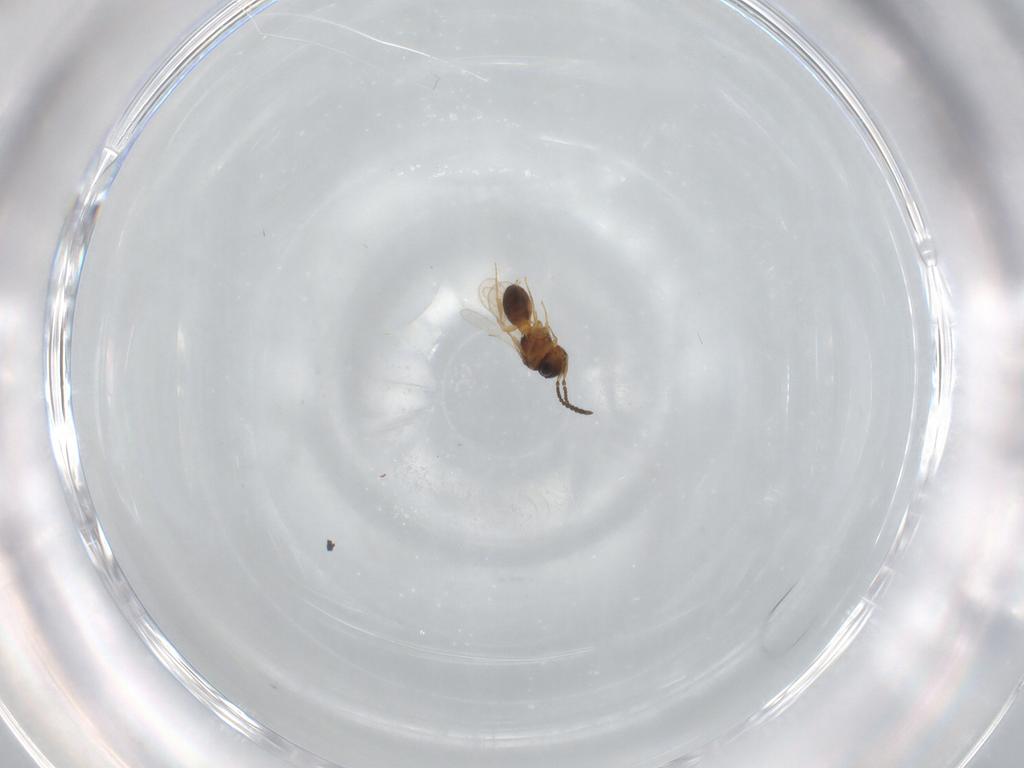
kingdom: Animalia
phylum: Arthropoda
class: Insecta
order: Hymenoptera
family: Scelionidae
